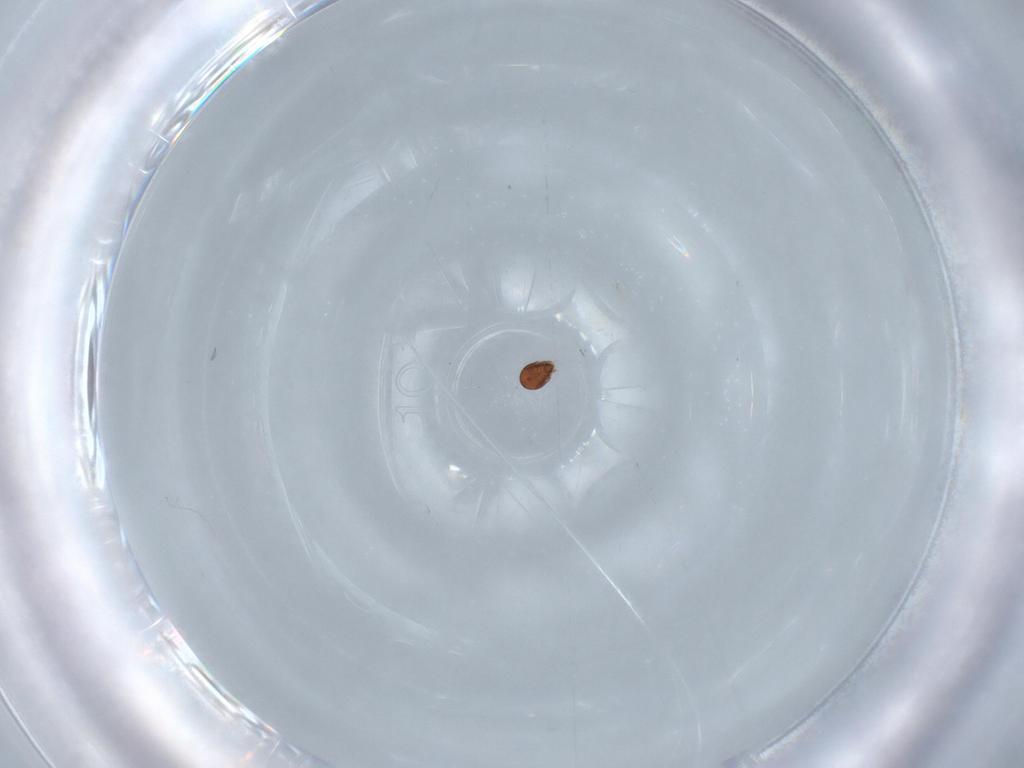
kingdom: Animalia
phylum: Arthropoda
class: Arachnida
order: Sarcoptiformes
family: Oribatellidae
